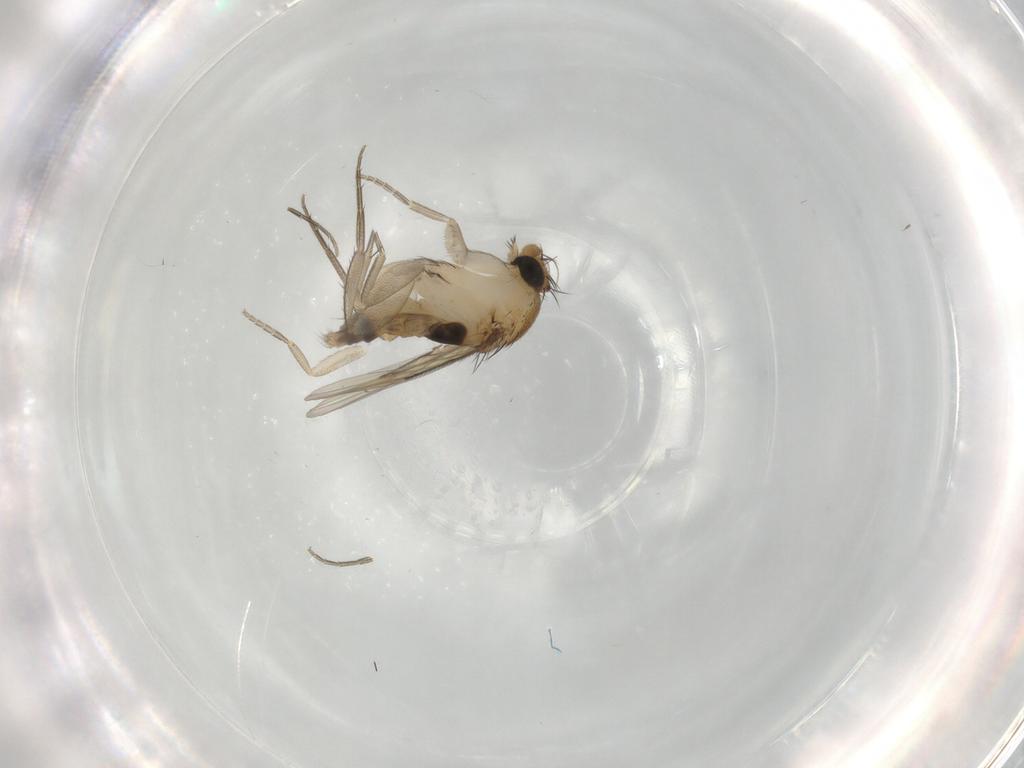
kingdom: Animalia
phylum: Arthropoda
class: Insecta
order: Diptera
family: Phoridae
